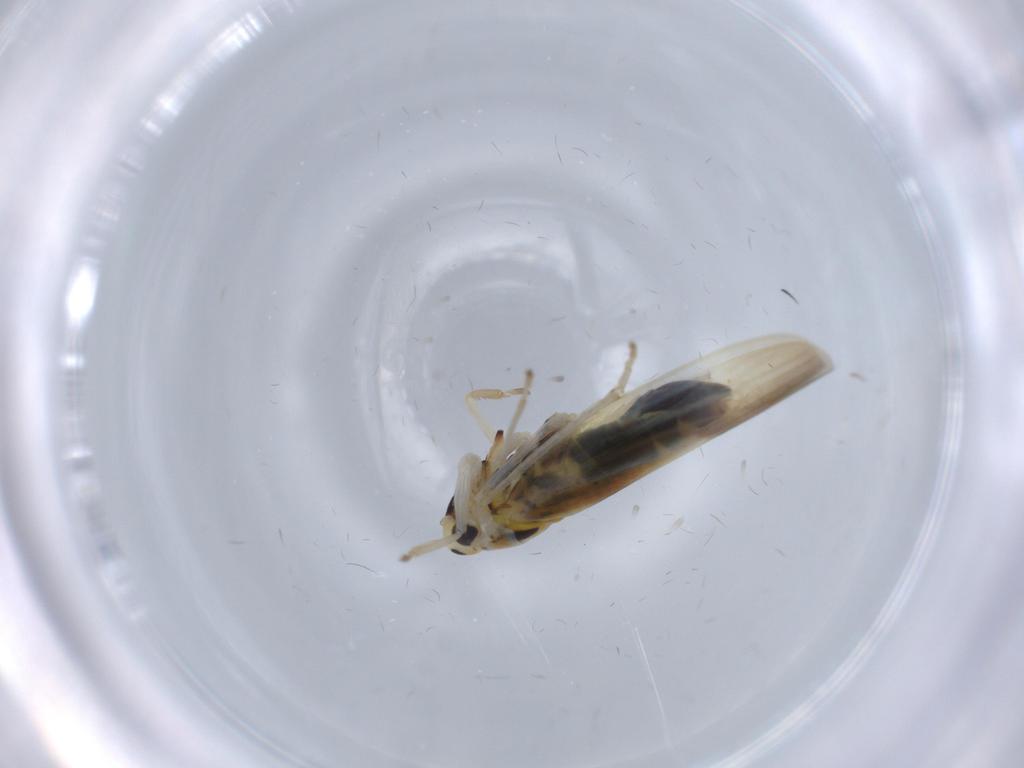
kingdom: Animalia
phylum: Arthropoda
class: Insecta
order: Hemiptera
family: Cicadellidae
